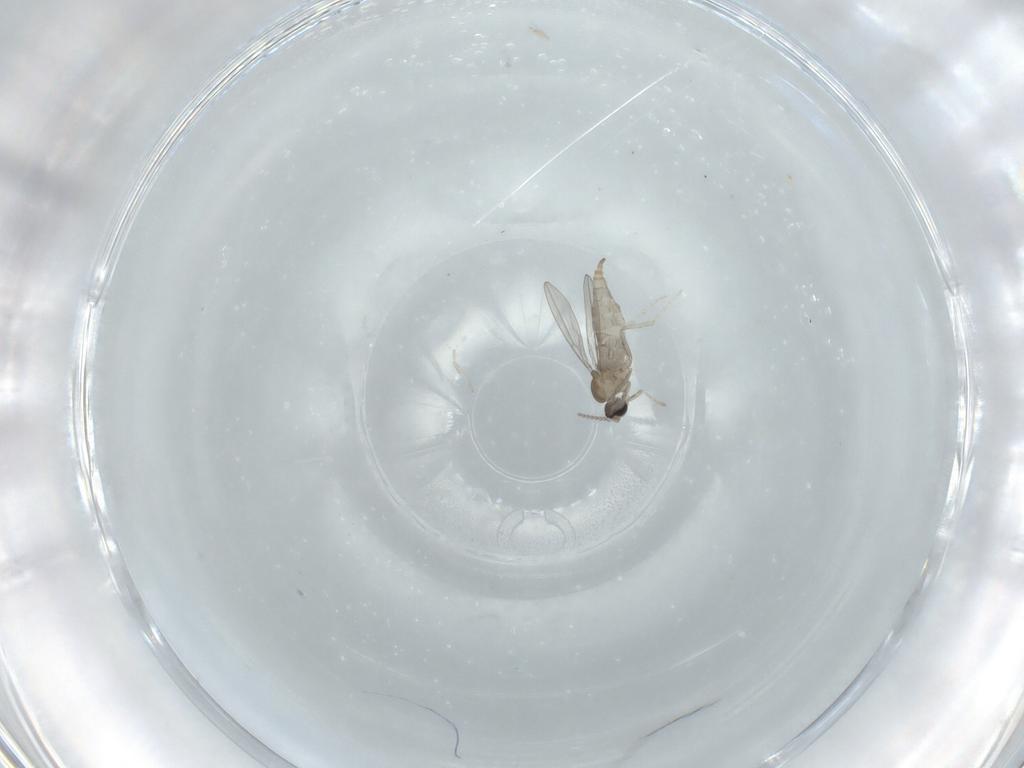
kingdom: Animalia
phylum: Arthropoda
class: Insecta
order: Diptera
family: Cecidomyiidae
